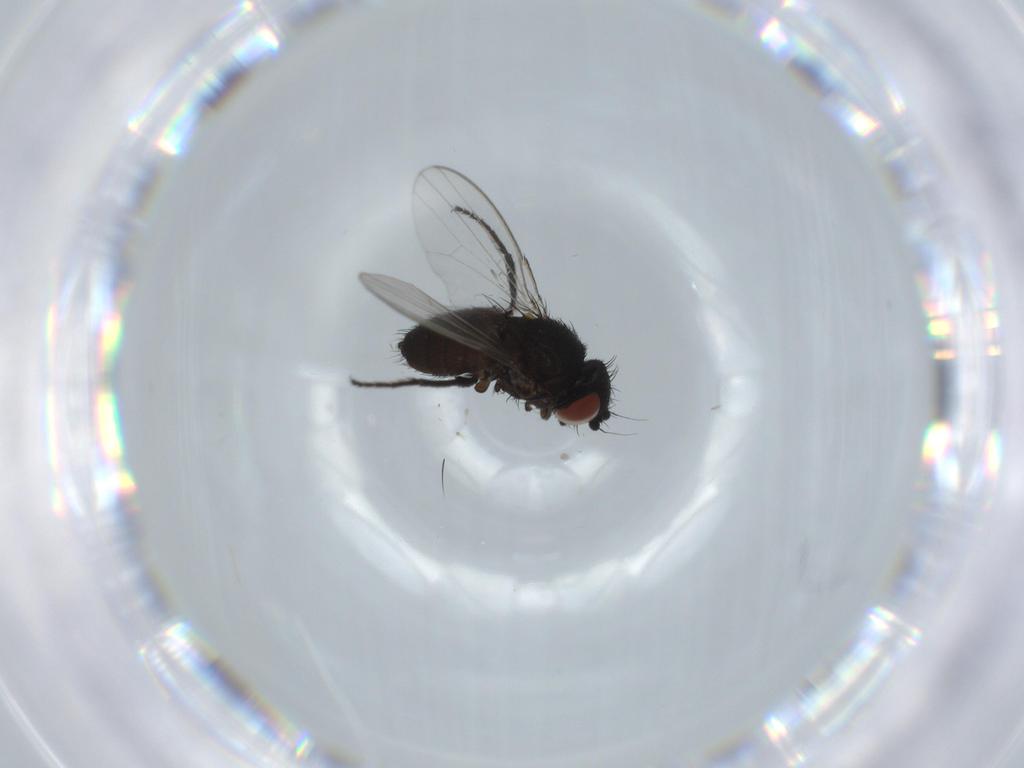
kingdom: Animalia
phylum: Arthropoda
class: Insecta
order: Diptera
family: Milichiidae
